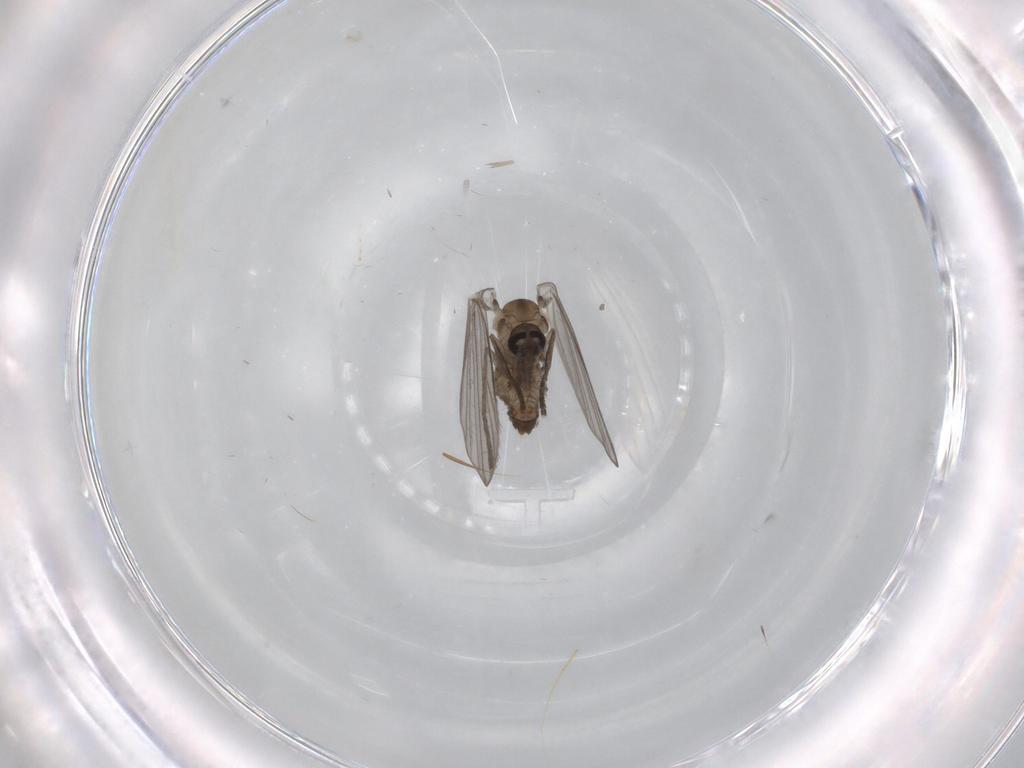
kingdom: Animalia
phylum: Arthropoda
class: Insecta
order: Diptera
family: Psychodidae
